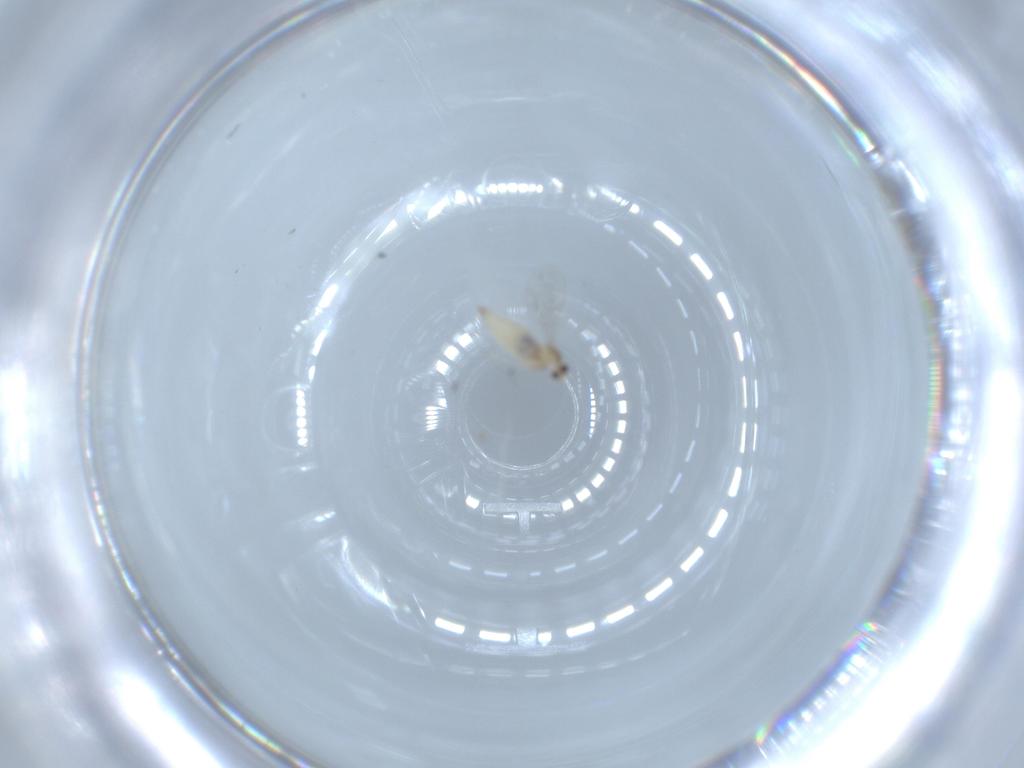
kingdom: Animalia
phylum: Arthropoda
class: Insecta
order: Diptera
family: Cecidomyiidae
